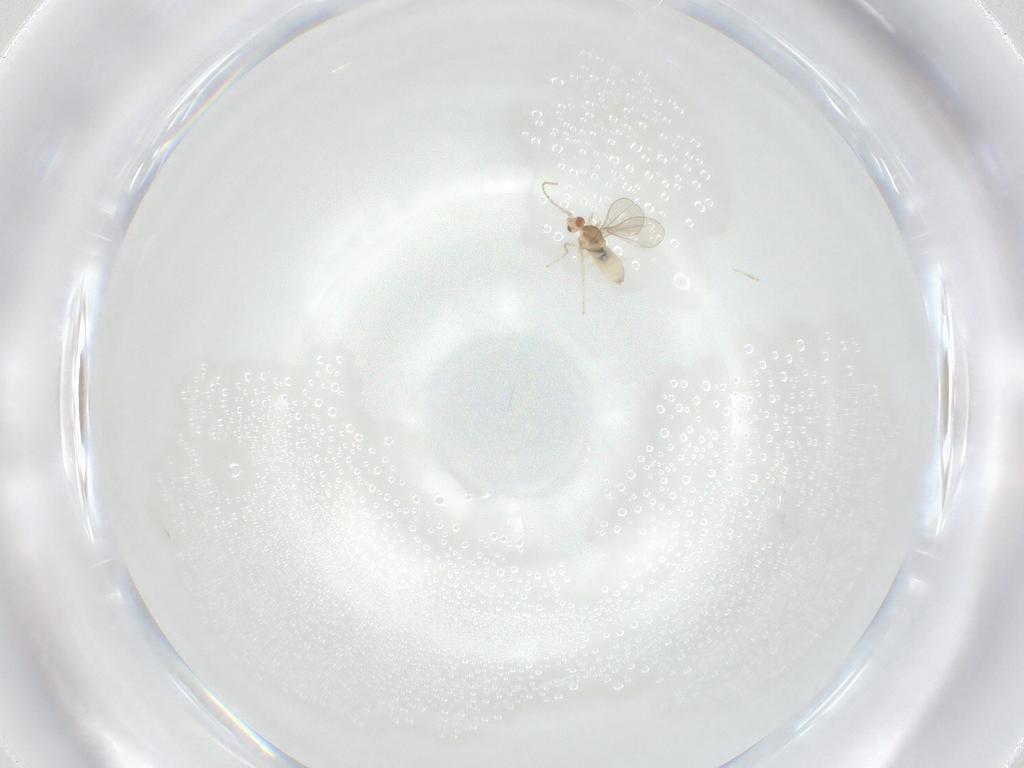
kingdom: Animalia
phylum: Arthropoda
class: Insecta
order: Diptera
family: Cecidomyiidae
